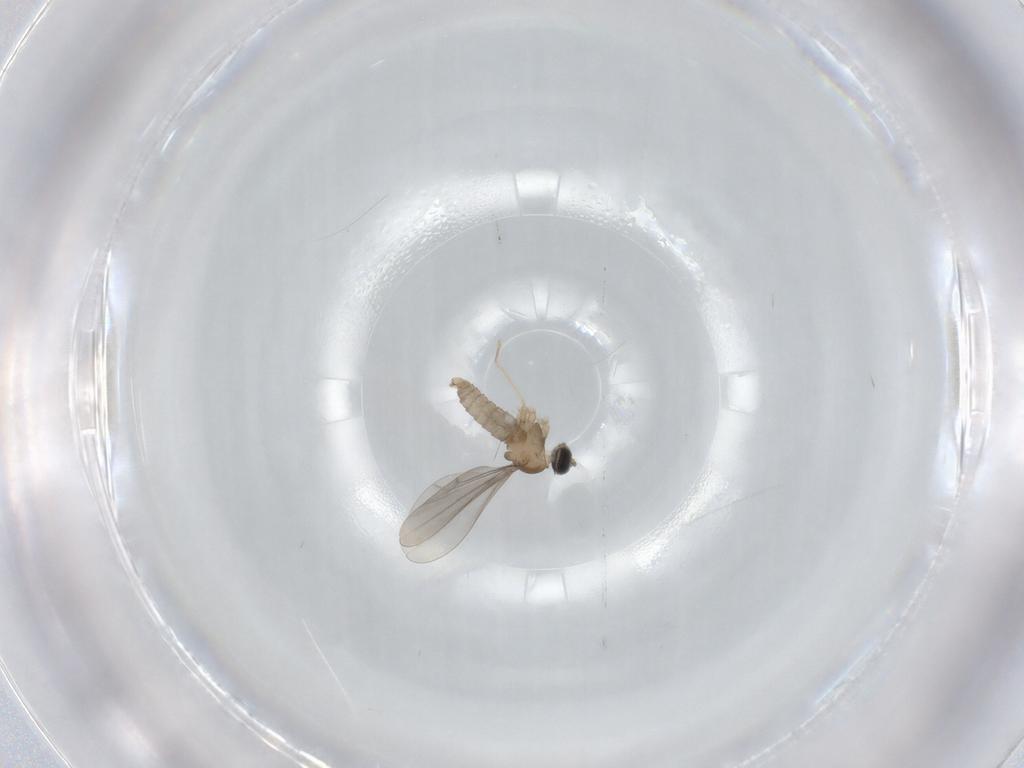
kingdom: Animalia
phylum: Arthropoda
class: Insecta
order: Diptera
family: Cecidomyiidae
